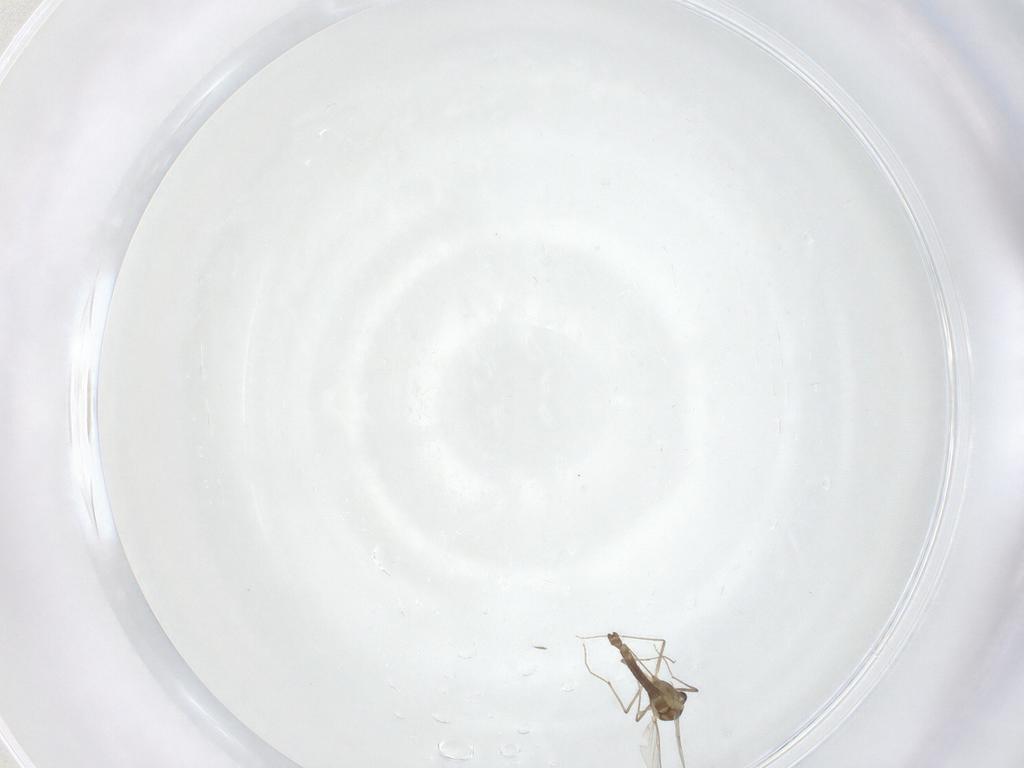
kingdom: Animalia
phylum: Arthropoda
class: Insecta
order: Diptera
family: Sciaridae
